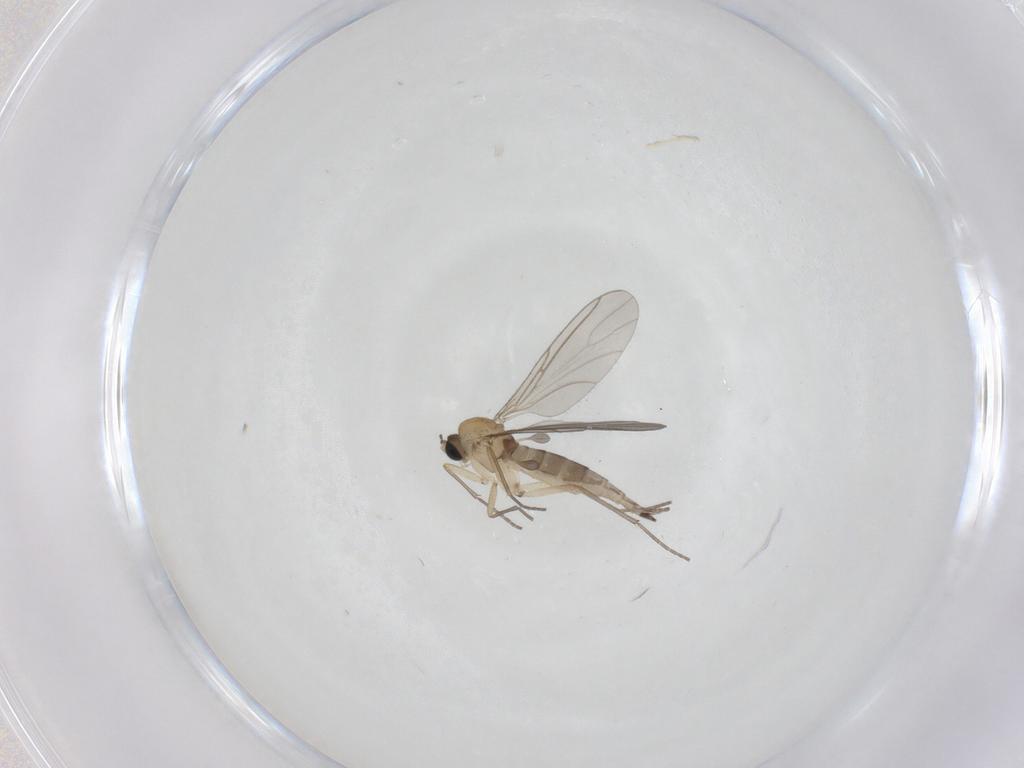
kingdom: Animalia
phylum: Arthropoda
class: Insecta
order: Diptera
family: Sciaridae
